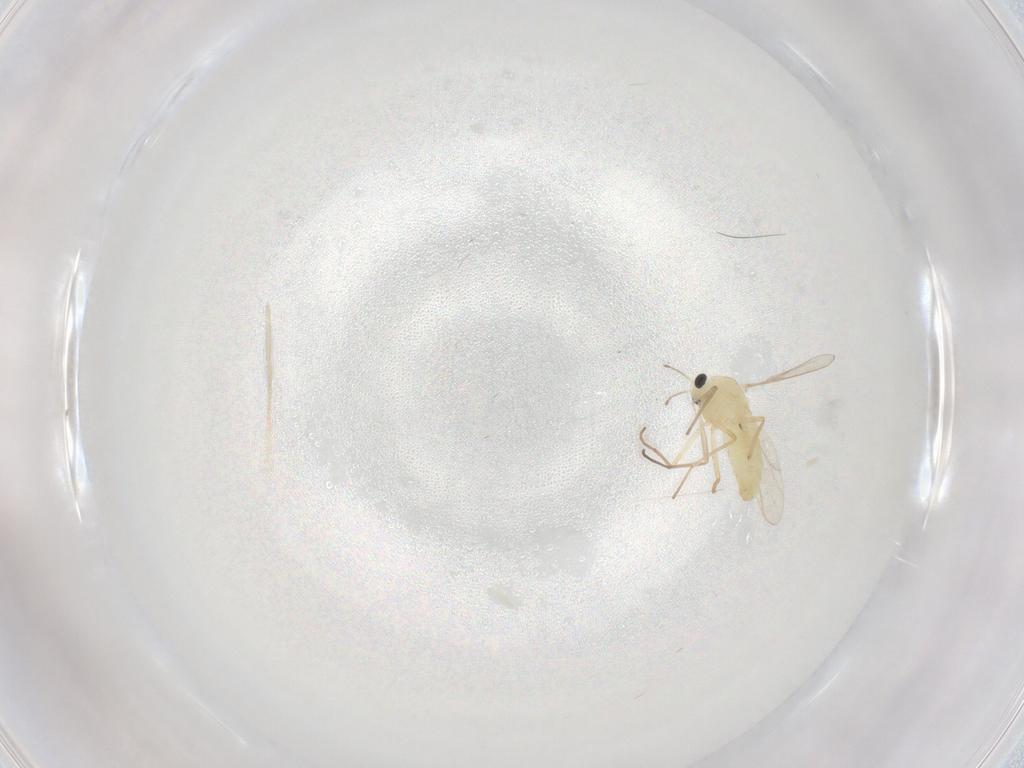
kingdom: Animalia
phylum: Arthropoda
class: Insecta
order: Diptera
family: Chironomidae
